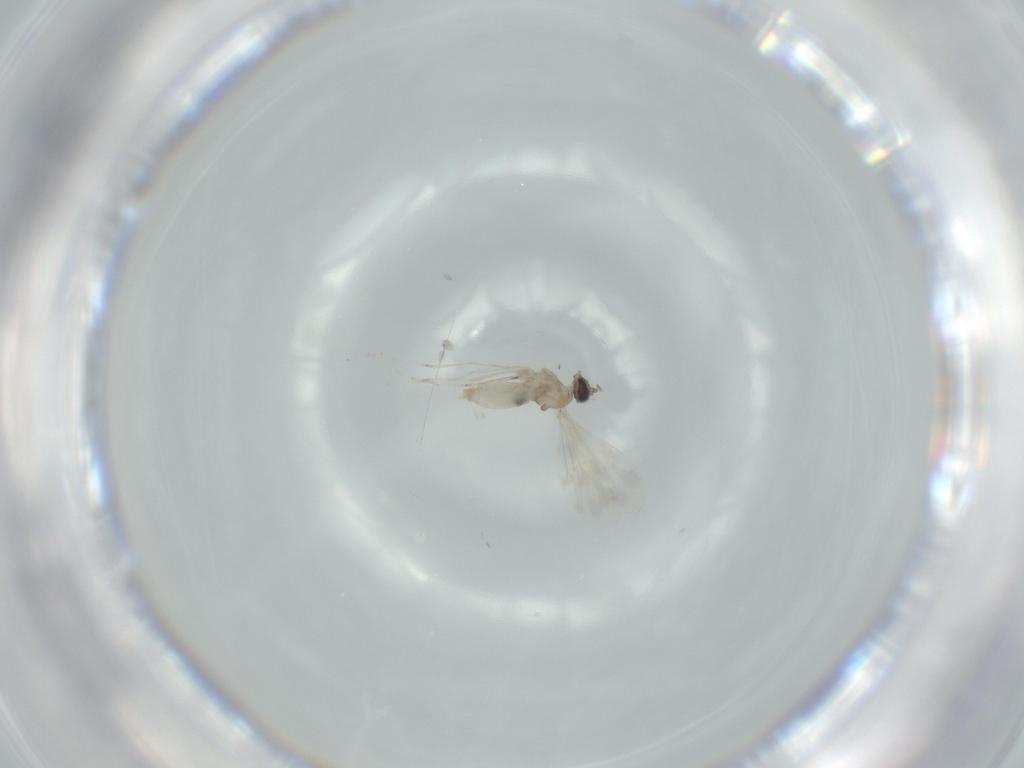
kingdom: Animalia
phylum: Arthropoda
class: Insecta
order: Diptera
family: Cecidomyiidae
